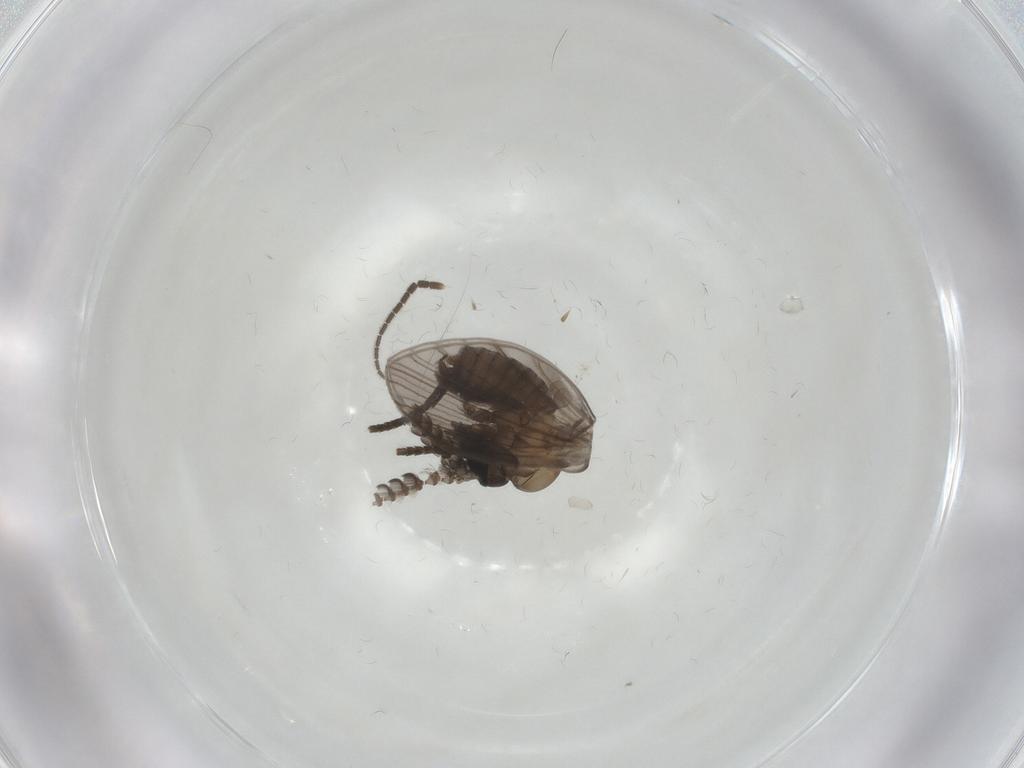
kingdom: Animalia
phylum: Arthropoda
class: Insecta
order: Diptera
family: Psychodidae
